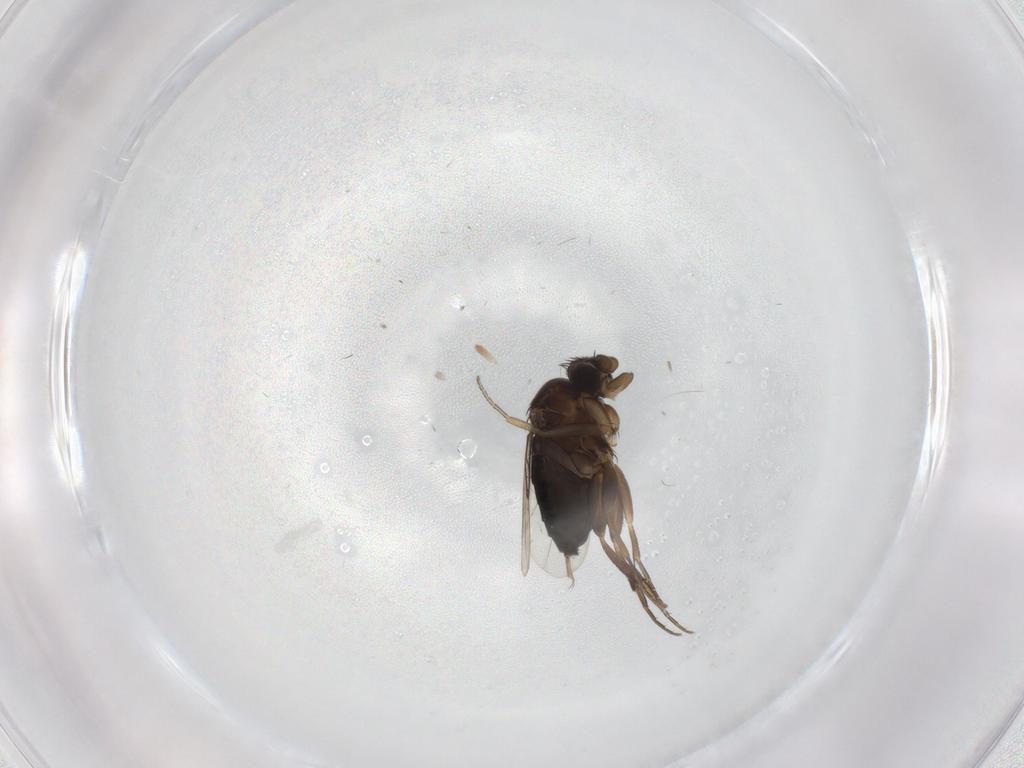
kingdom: Animalia
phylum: Arthropoda
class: Insecta
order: Diptera
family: Phoridae
